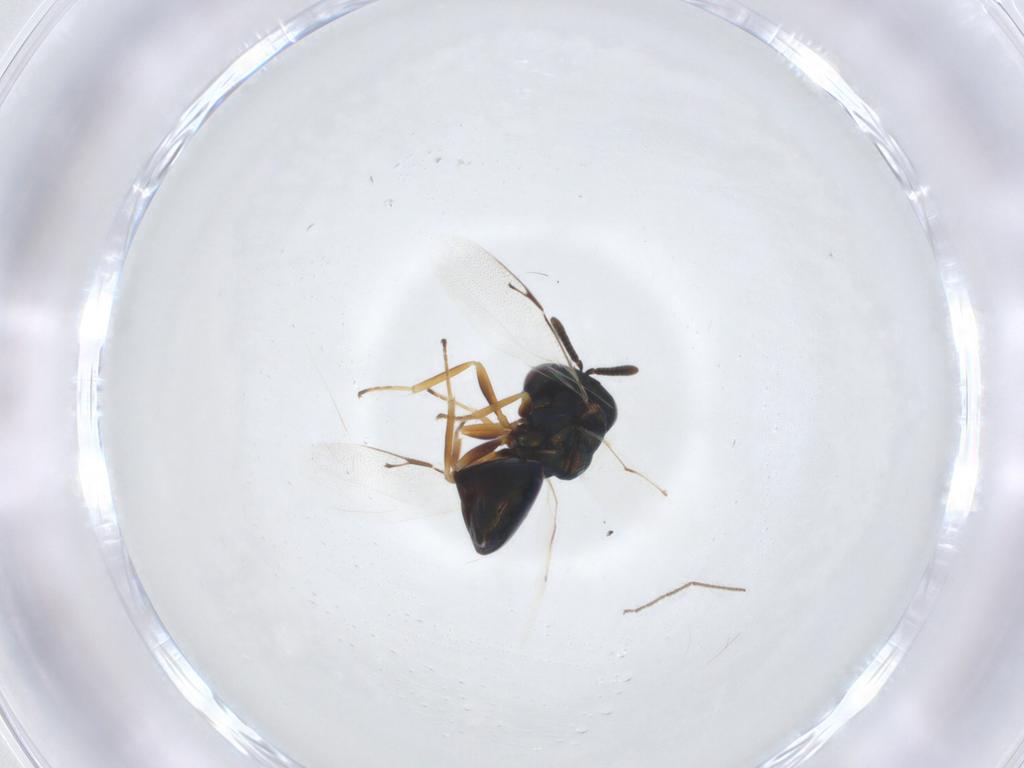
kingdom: Animalia
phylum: Arthropoda
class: Insecta
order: Hymenoptera
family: Pteromalidae
